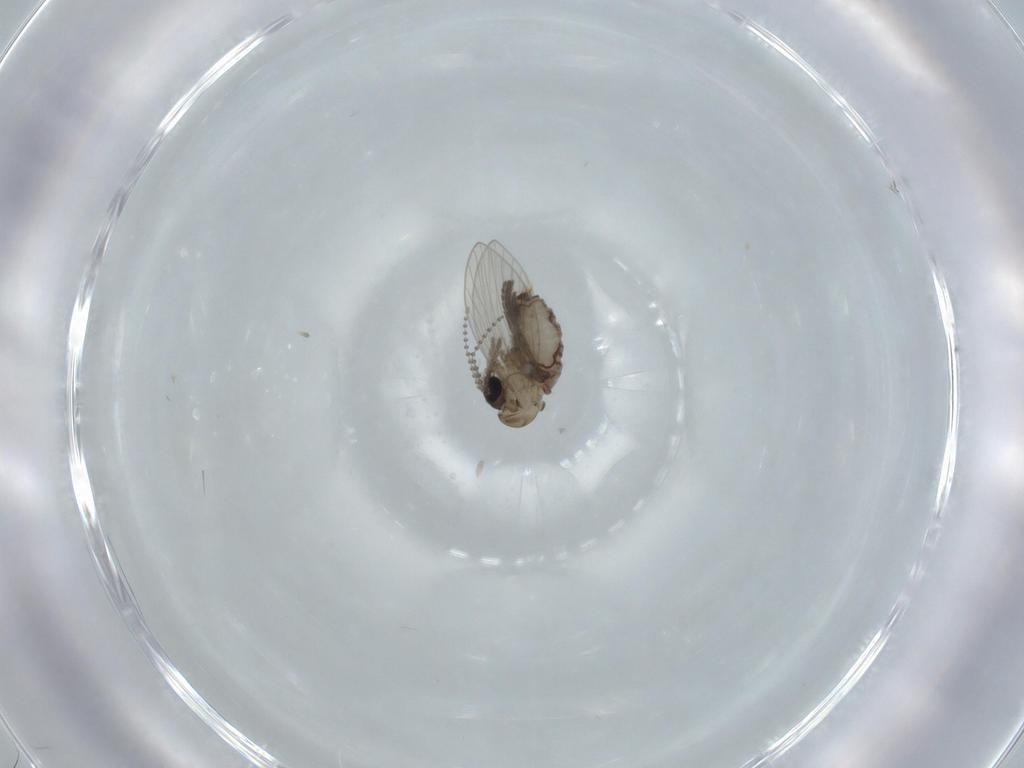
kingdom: Animalia
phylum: Arthropoda
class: Insecta
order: Diptera
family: Psychodidae
